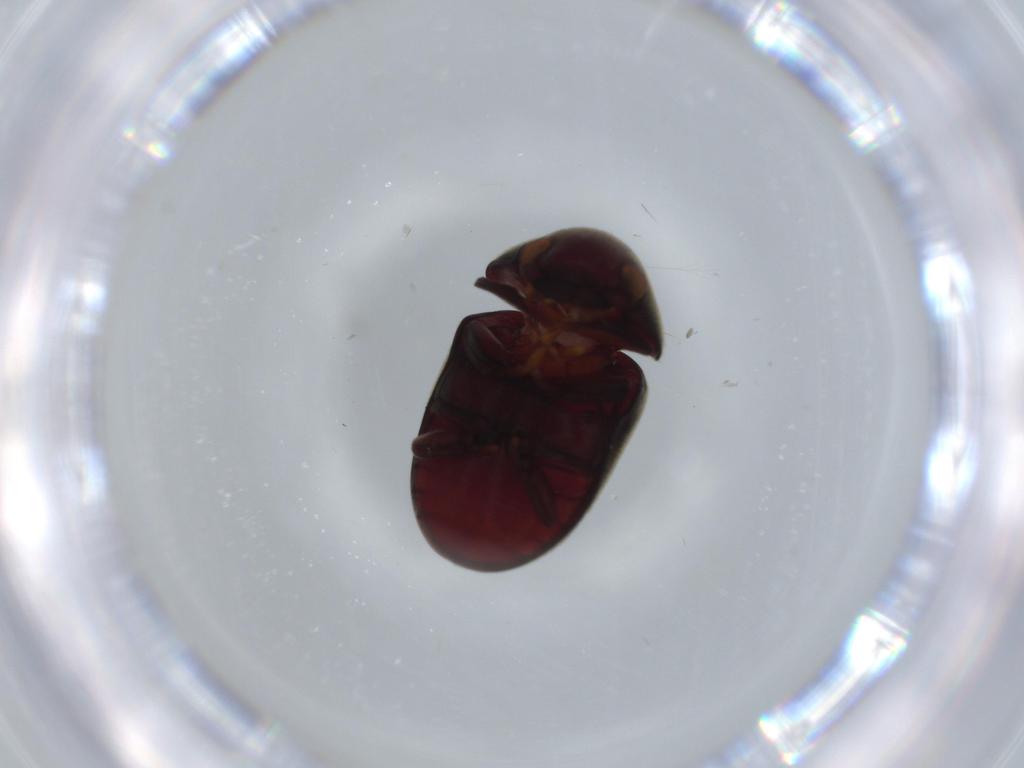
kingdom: Animalia
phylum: Arthropoda
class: Insecta
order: Coleoptera
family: Ptinidae
